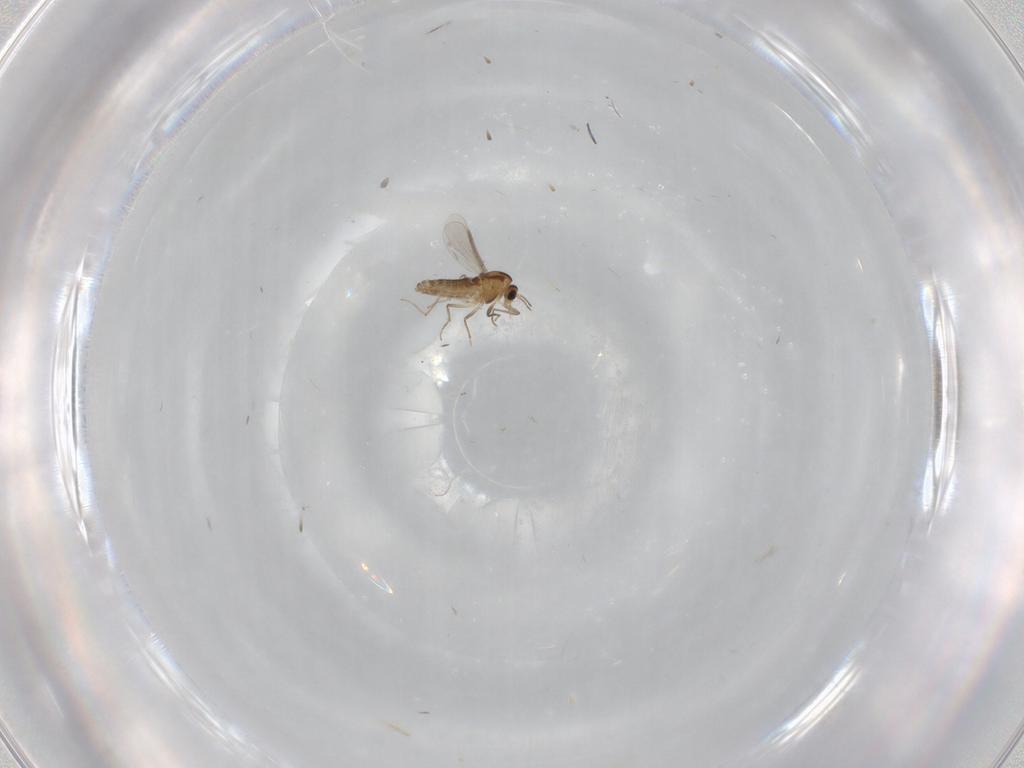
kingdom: Animalia
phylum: Arthropoda
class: Insecta
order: Diptera
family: Chironomidae
